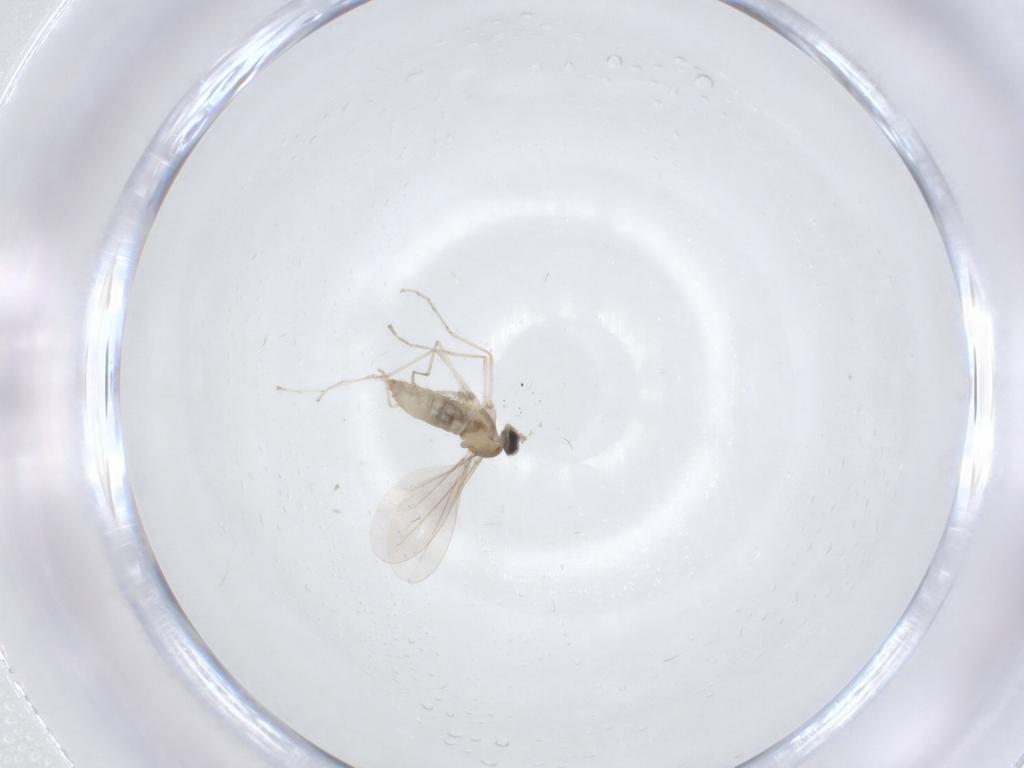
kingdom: Animalia
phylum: Arthropoda
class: Insecta
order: Diptera
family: Cecidomyiidae
